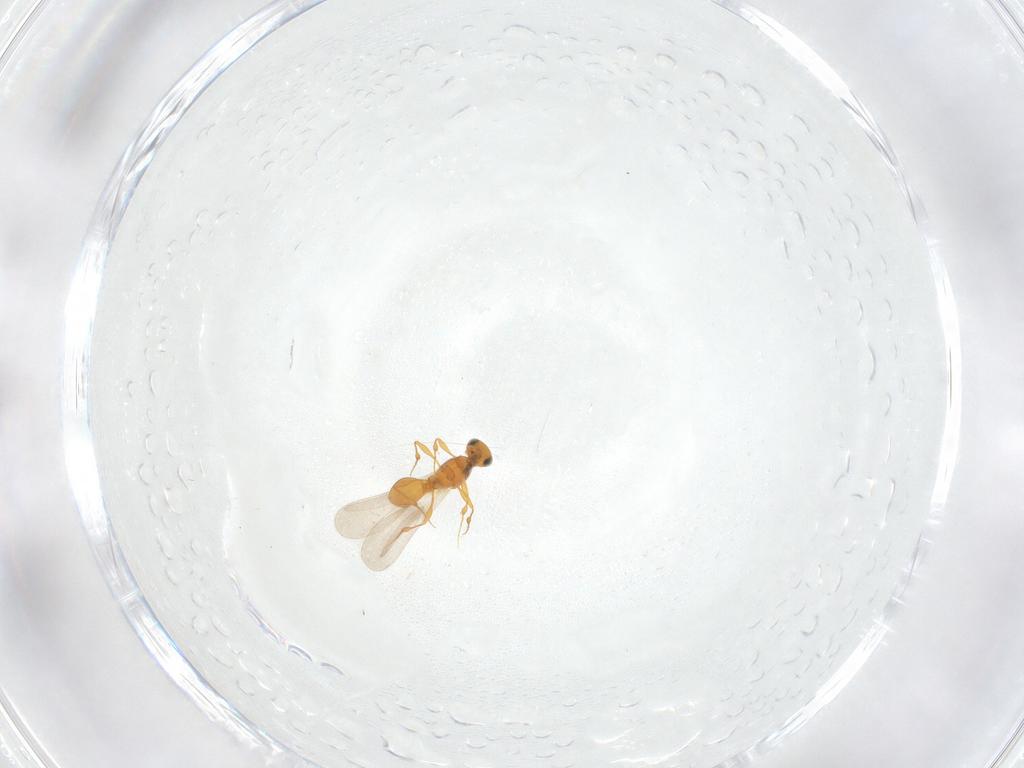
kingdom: Animalia
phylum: Arthropoda
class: Insecta
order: Hymenoptera
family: Platygastridae
